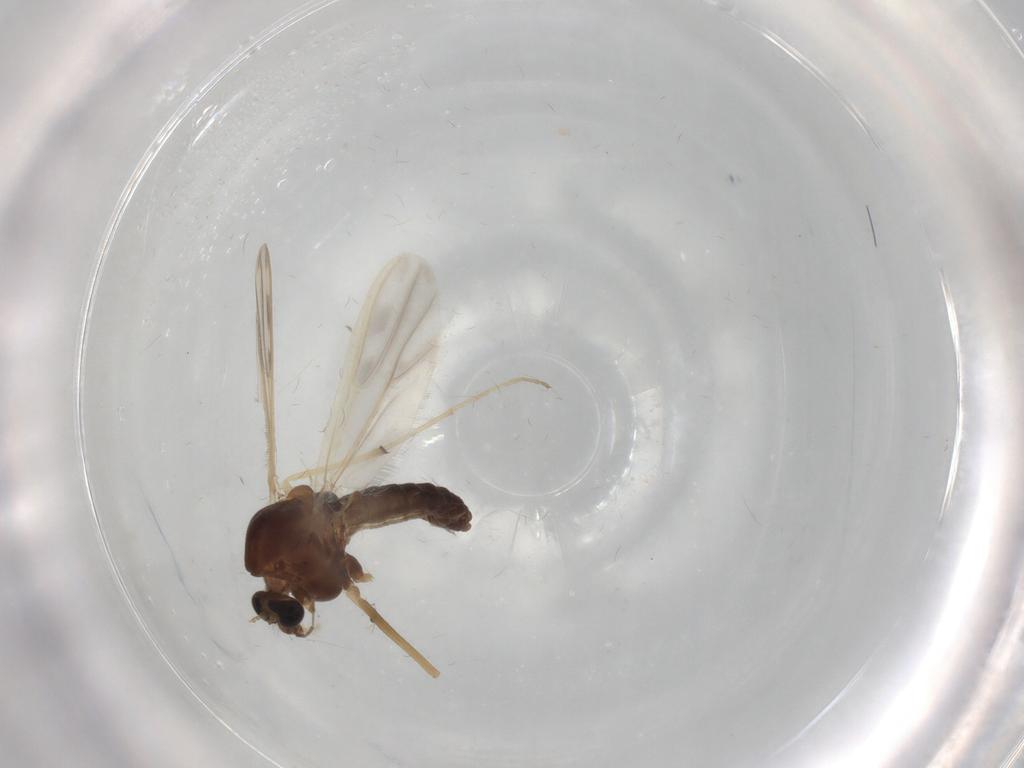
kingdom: Animalia
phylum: Arthropoda
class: Insecta
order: Diptera
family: Chironomidae
